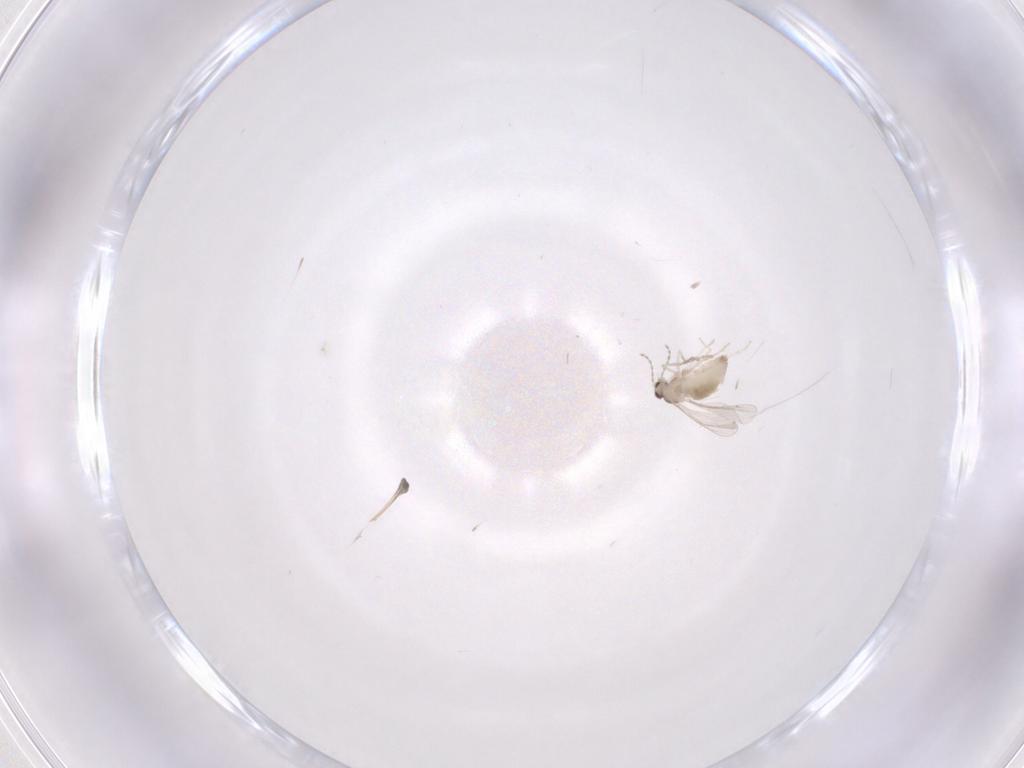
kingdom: Animalia
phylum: Arthropoda
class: Insecta
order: Diptera
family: Cecidomyiidae
